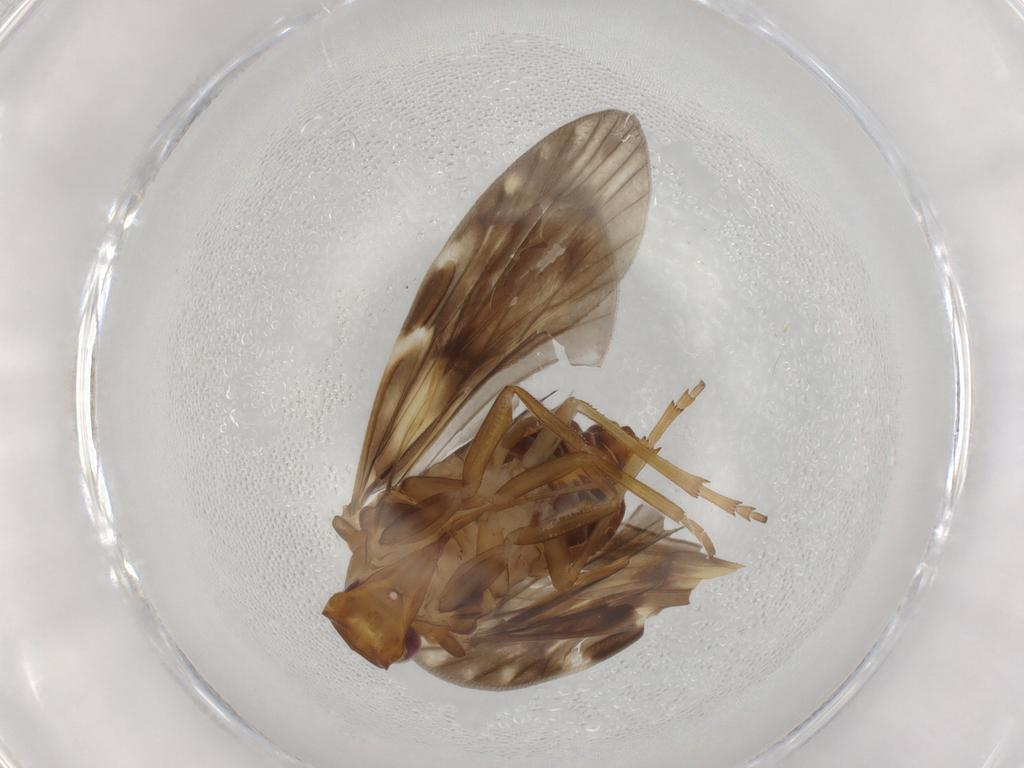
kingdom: Animalia
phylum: Arthropoda
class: Insecta
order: Hemiptera
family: Cixiidae
